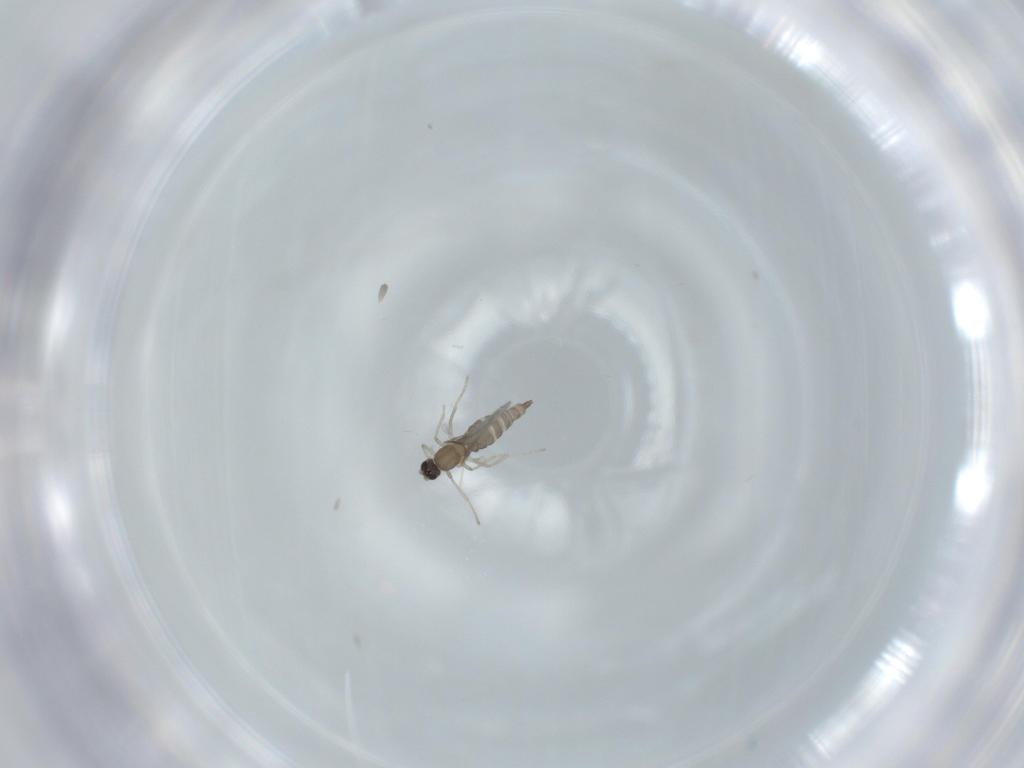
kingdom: Animalia
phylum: Arthropoda
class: Insecta
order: Diptera
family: Cecidomyiidae
